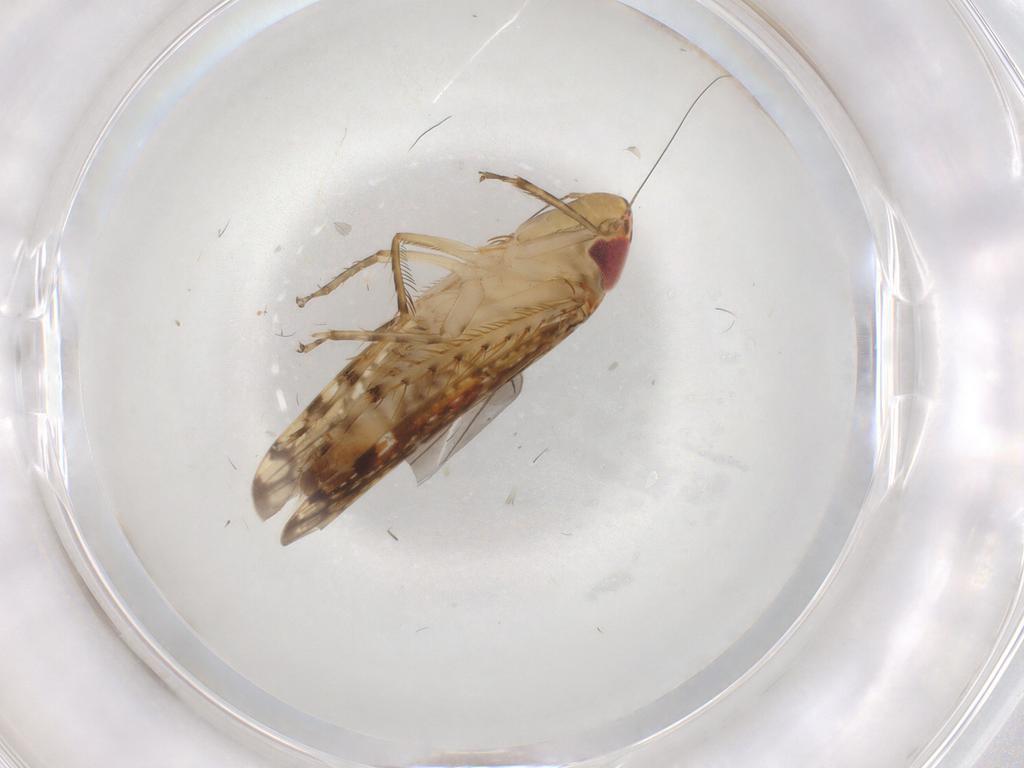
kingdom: Animalia
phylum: Arthropoda
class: Insecta
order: Hemiptera
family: Cicadellidae
